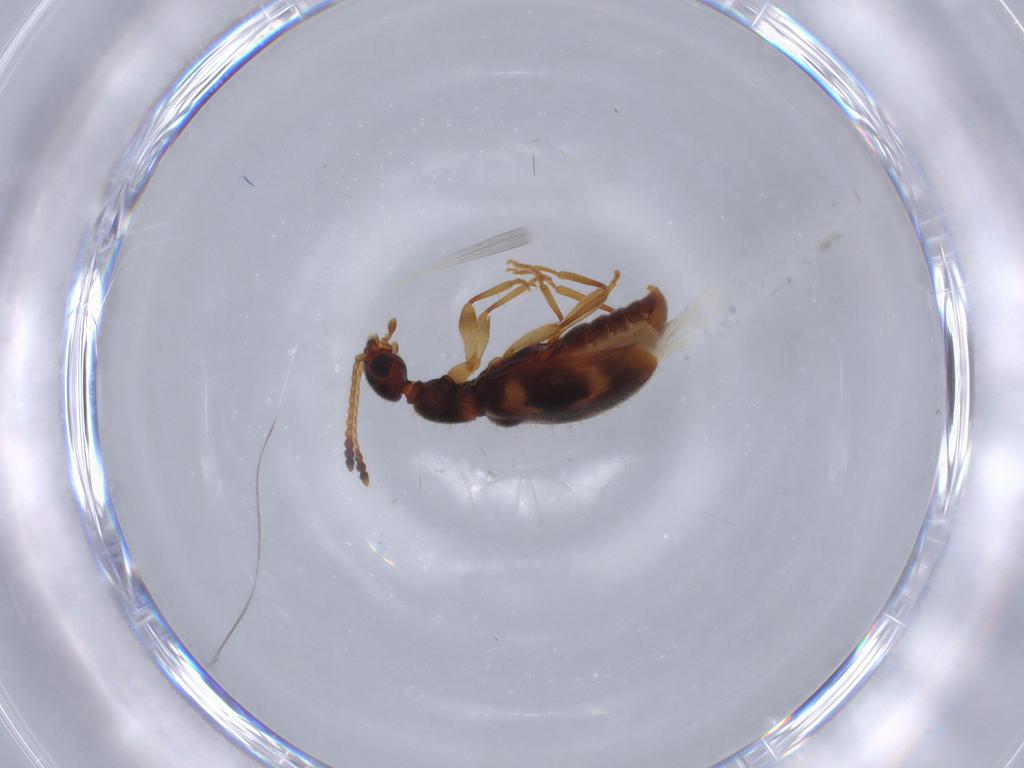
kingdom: Animalia
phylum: Arthropoda
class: Insecta
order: Coleoptera
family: Anthicidae
